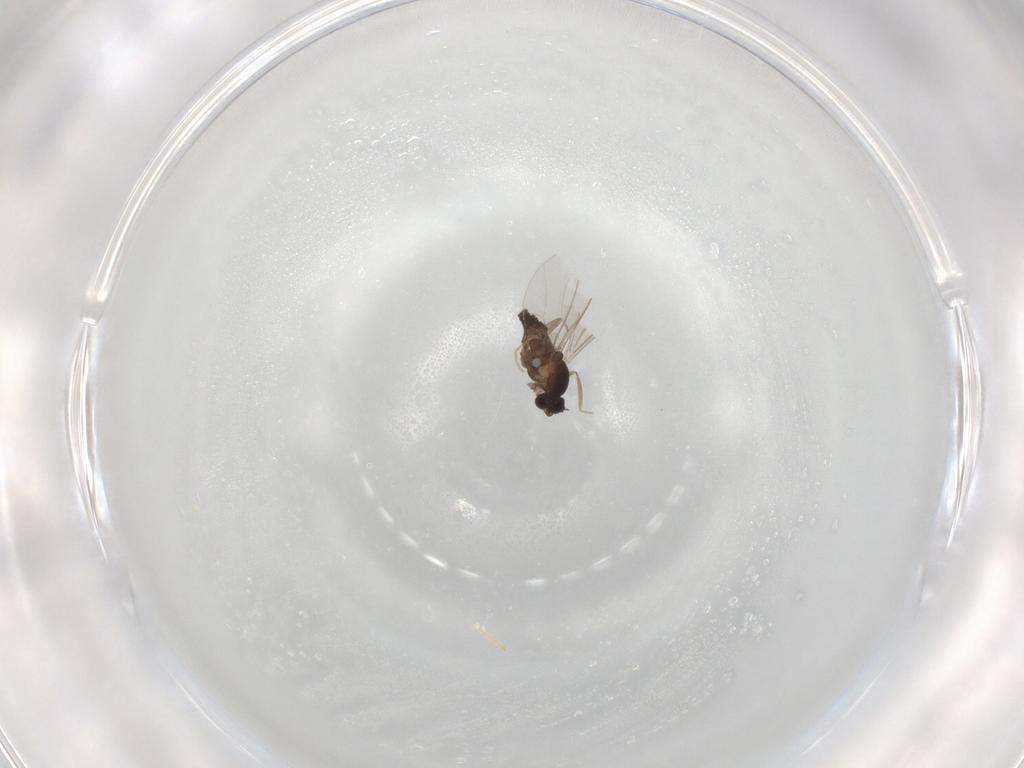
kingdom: Animalia
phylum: Arthropoda
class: Insecta
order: Diptera
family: Cecidomyiidae
